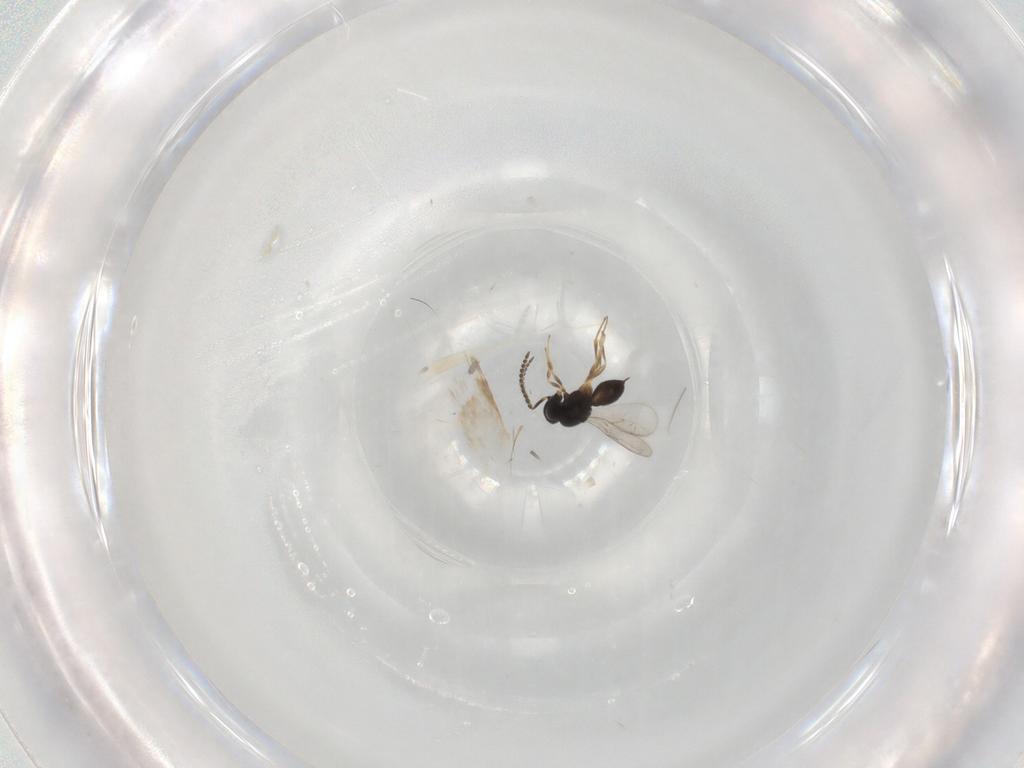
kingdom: Animalia
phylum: Arthropoda
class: Insecta
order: Hymenoptera
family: Scelionidae
